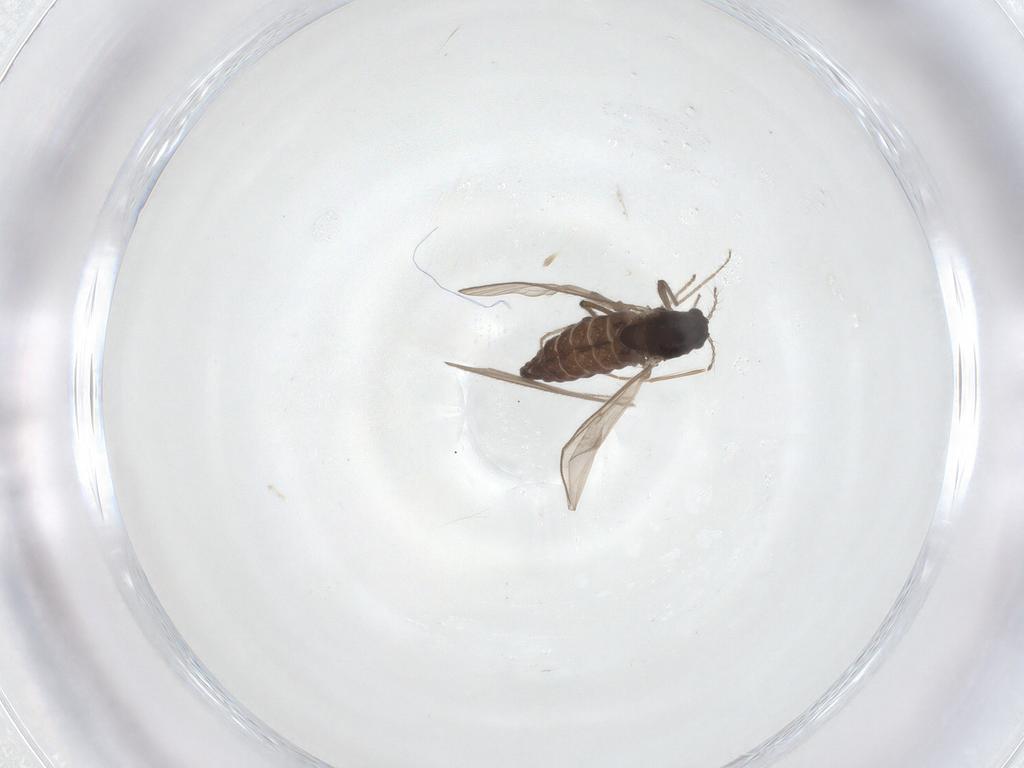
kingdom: Animalia
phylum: Arthropoda
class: Insecta
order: Diptera
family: Chironomidae
